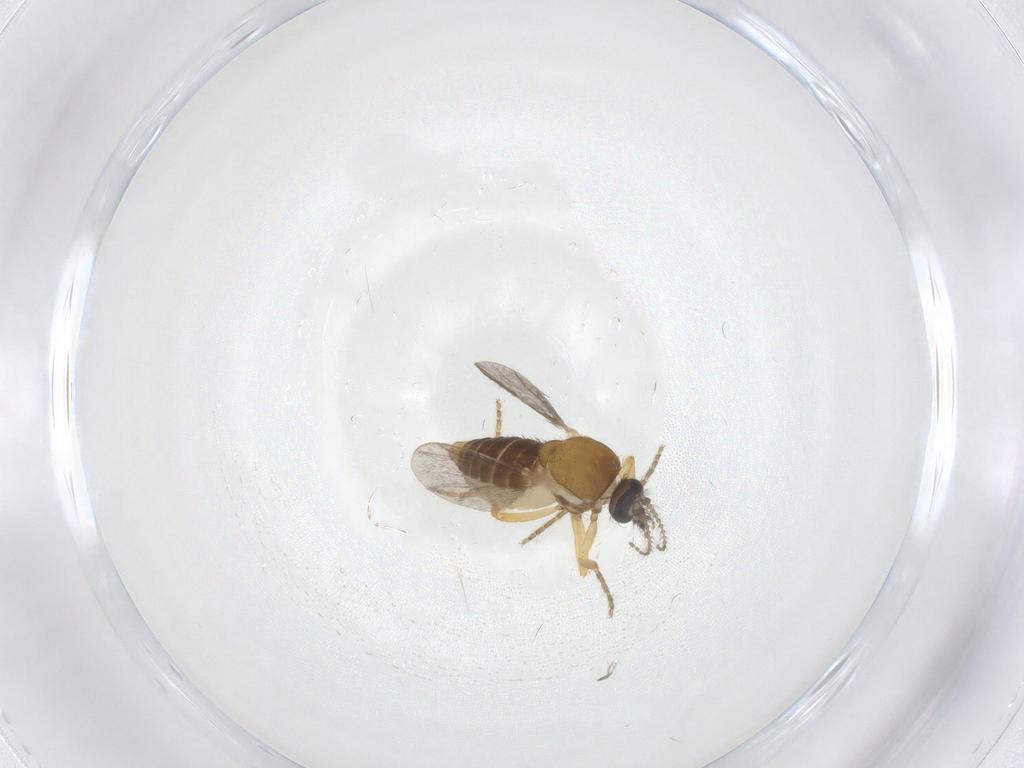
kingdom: Animalia
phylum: Arthropoda
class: Insecta
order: Diptera
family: Ceratopogonidae
